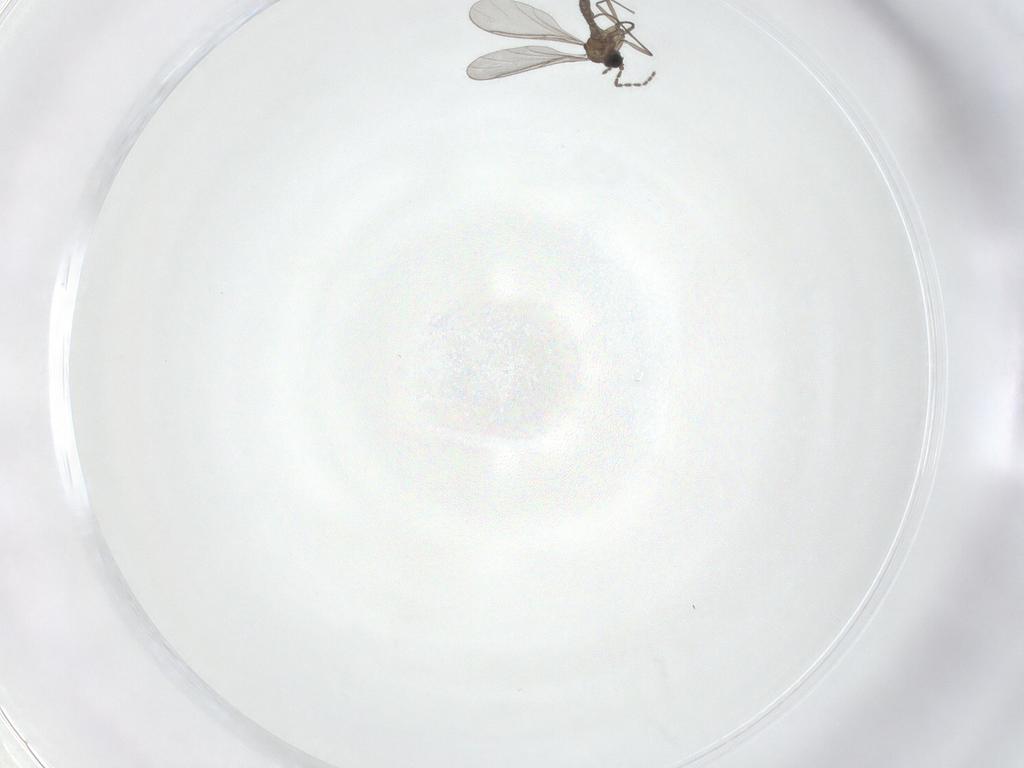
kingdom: Animalia
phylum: Arthropoda
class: Insecta
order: Diptera
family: Sciaridae
